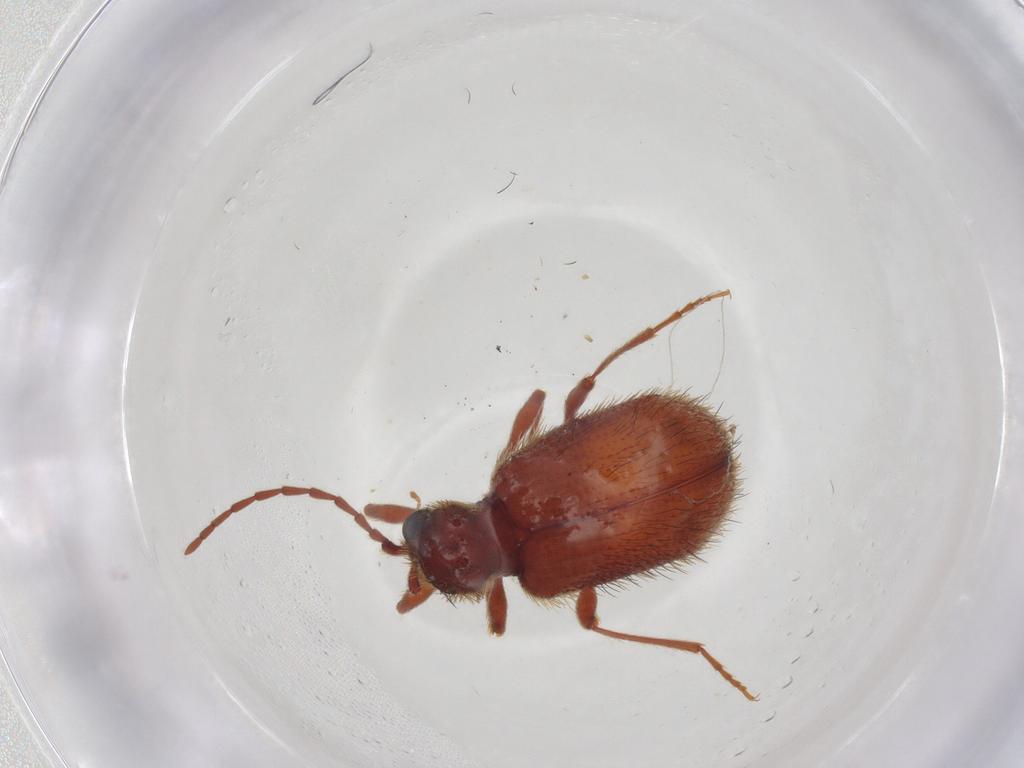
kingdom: Animalia
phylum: Arthropoda
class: Insecta
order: Coleoptera
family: Ptinidae
